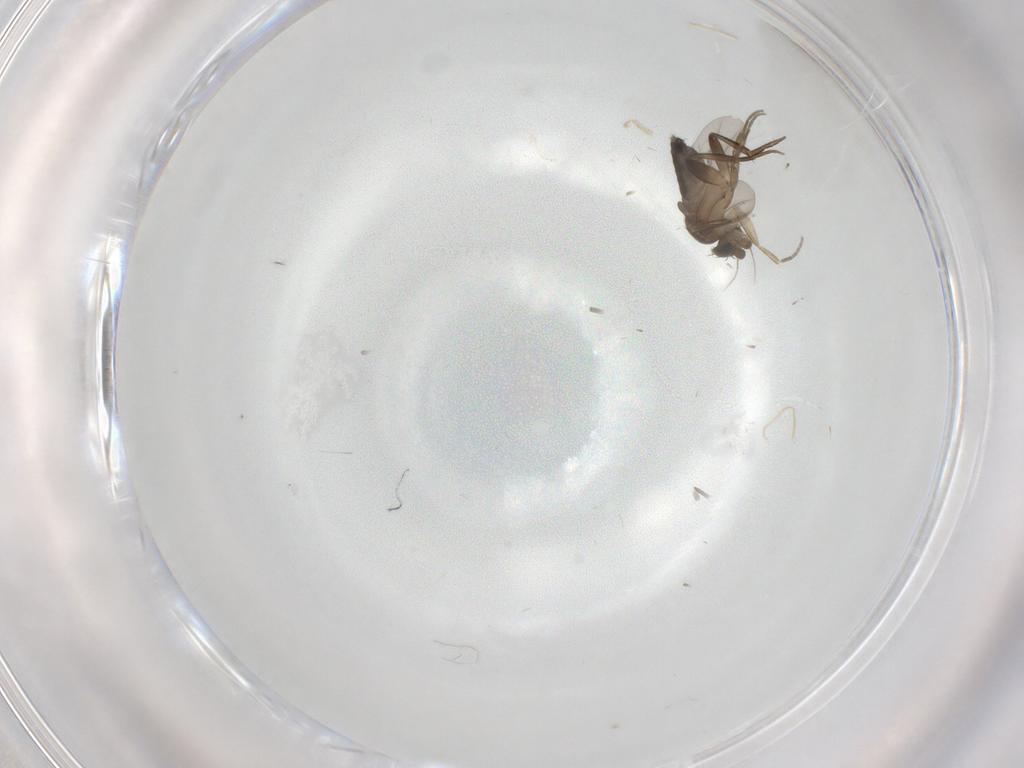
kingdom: Animalia
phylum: Arthropoda
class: Insecta
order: Diptera
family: Phoridae
